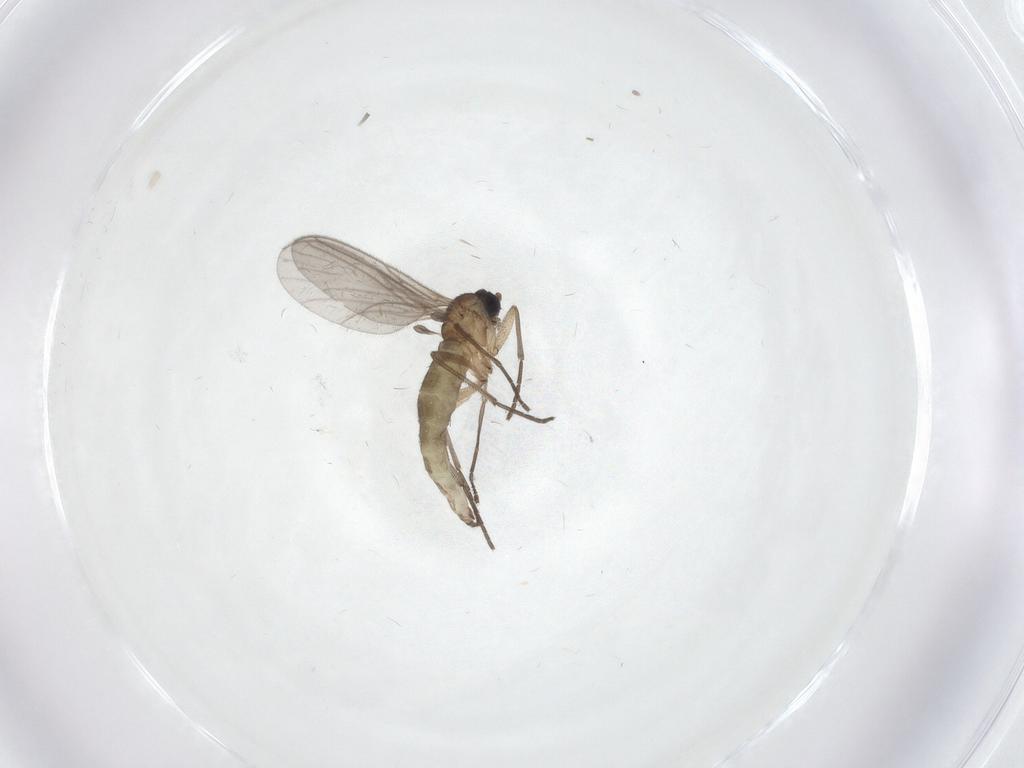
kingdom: Animalia
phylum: Arthropoda
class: Insecta
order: Diptera
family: Sciaridae
